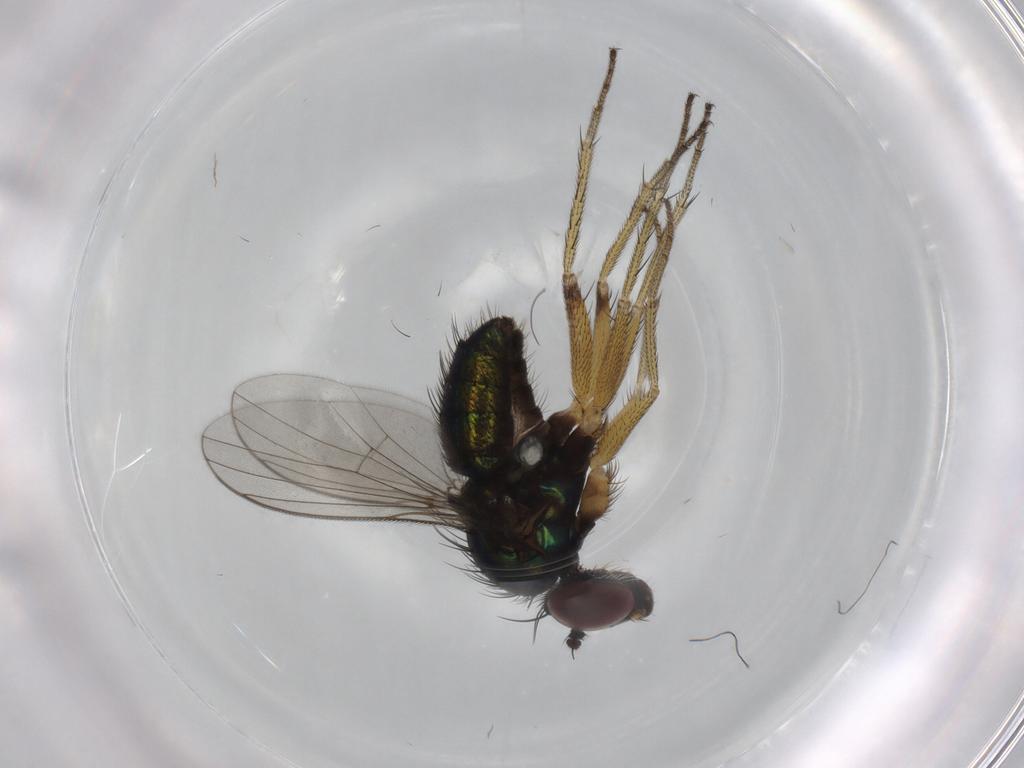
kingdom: Animalia
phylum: Arthropoda
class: Insecta
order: Diptera
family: Dolichopodidae
